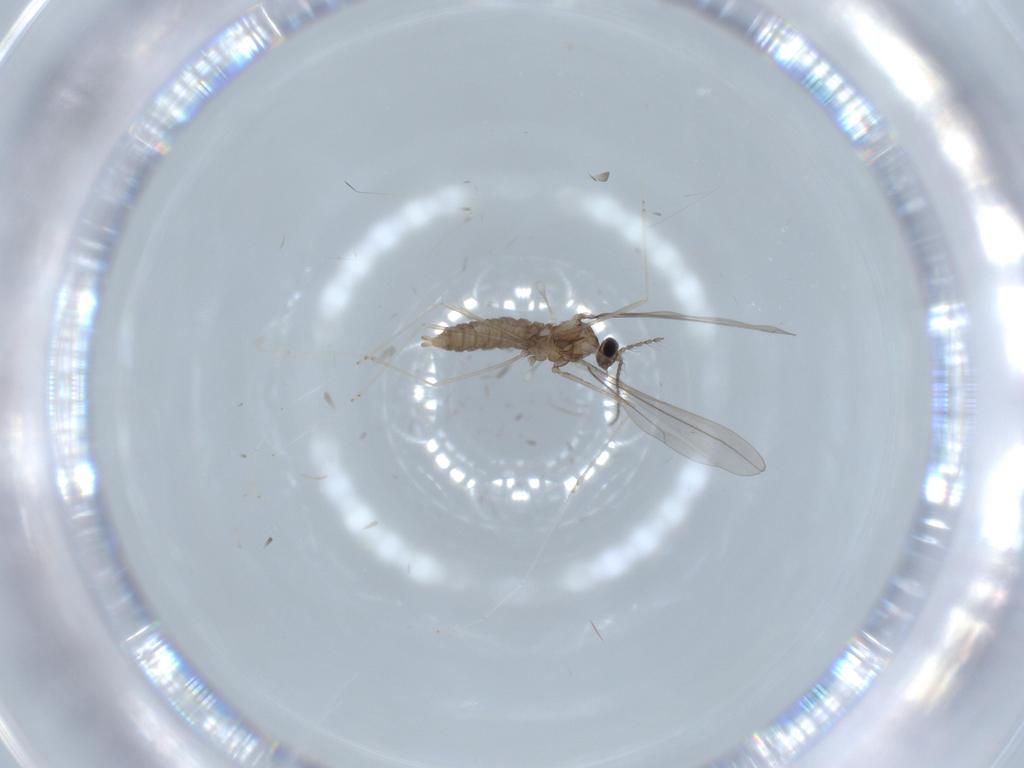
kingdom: Animalia
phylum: Arthropoda
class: Insecta
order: Diptera
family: Cecidomyiidae
